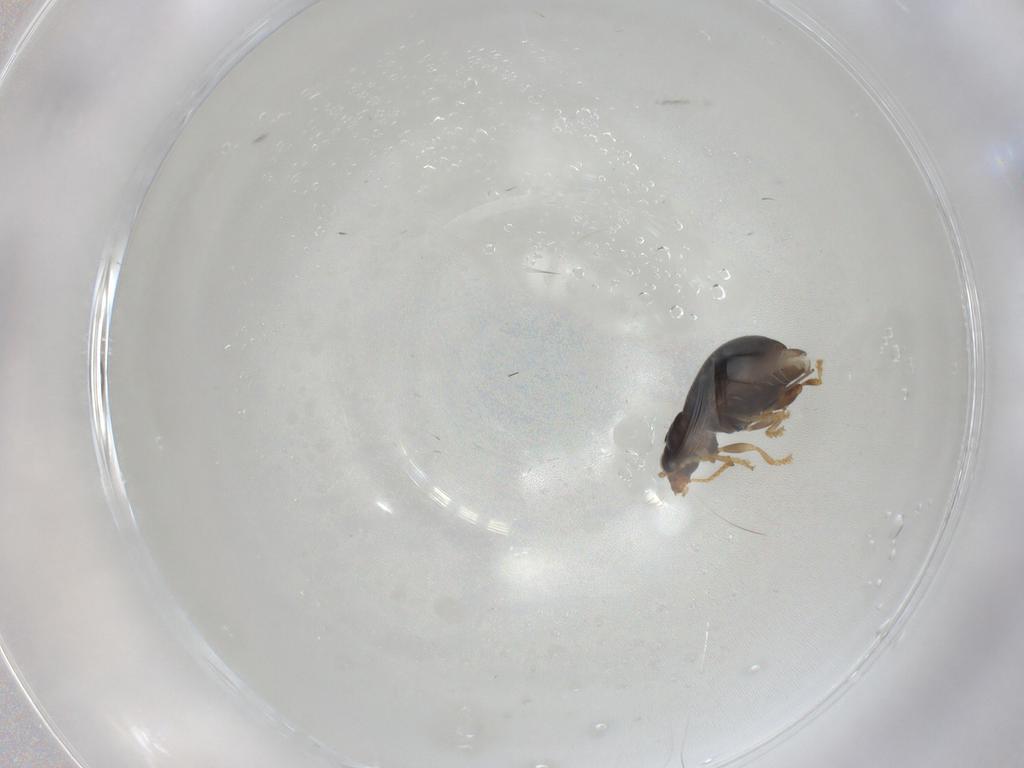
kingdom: Animalia
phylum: Arthropoda
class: Insecta
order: Coleoptera
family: Chrysomelidae
